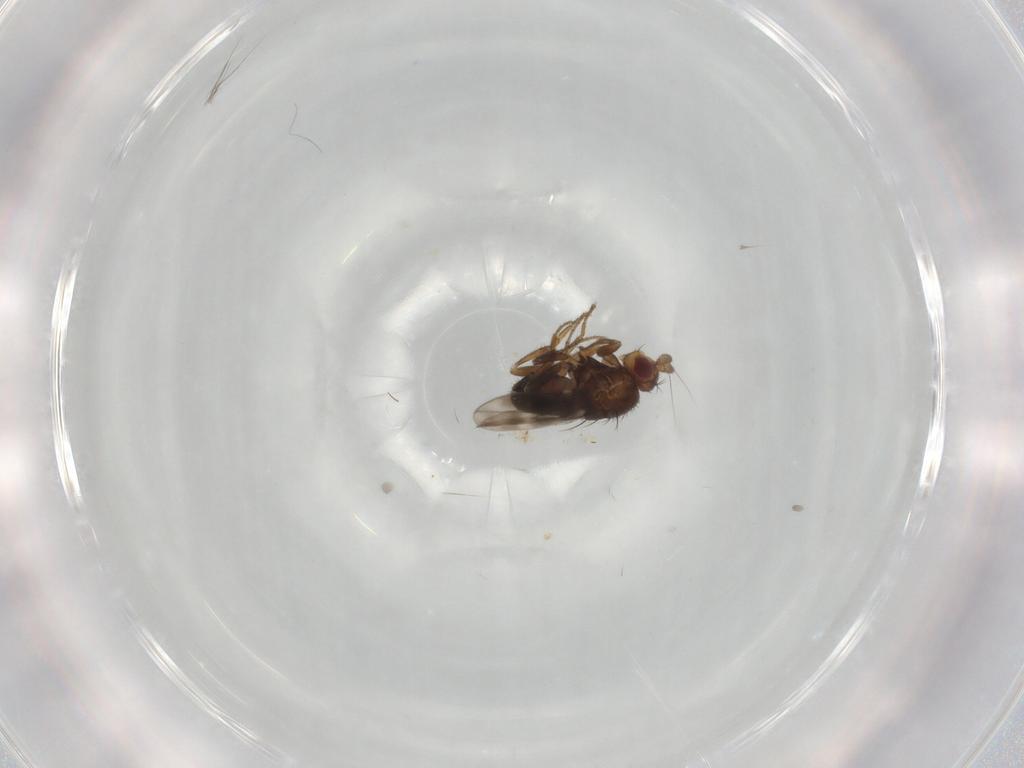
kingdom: Animalia
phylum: Arthropoda
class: Insecta
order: Diptera
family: Sphaeroceridae
